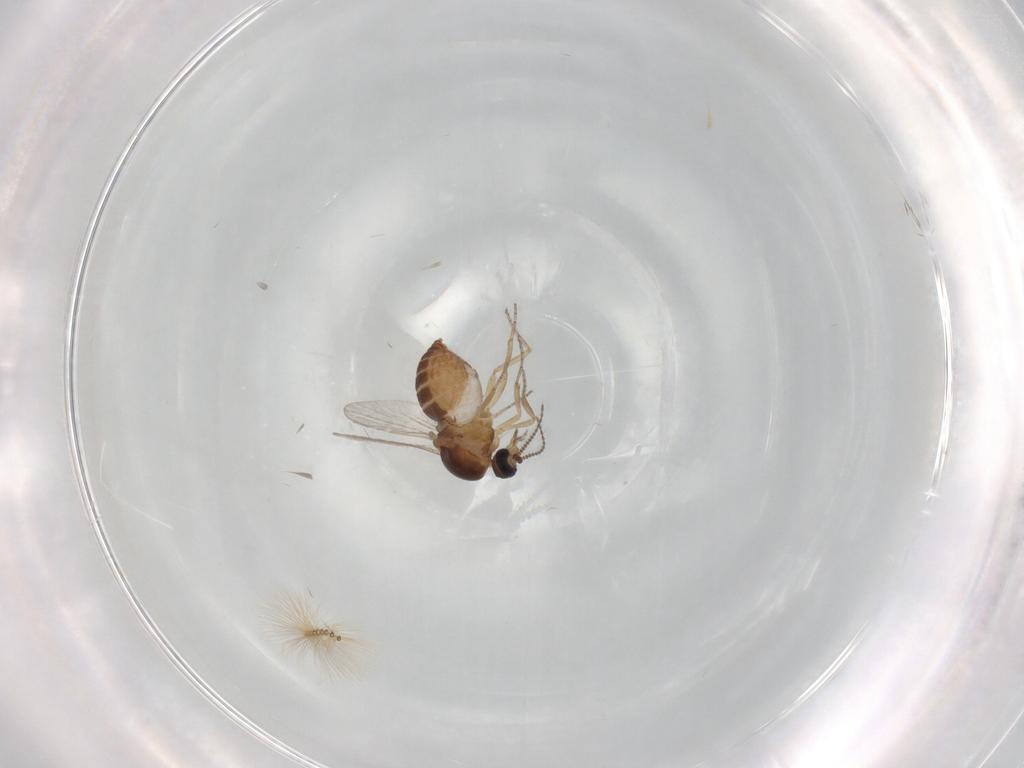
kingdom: Animalia
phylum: Arthropoda
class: Insecta
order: Diptera
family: Ceratopogonidae
